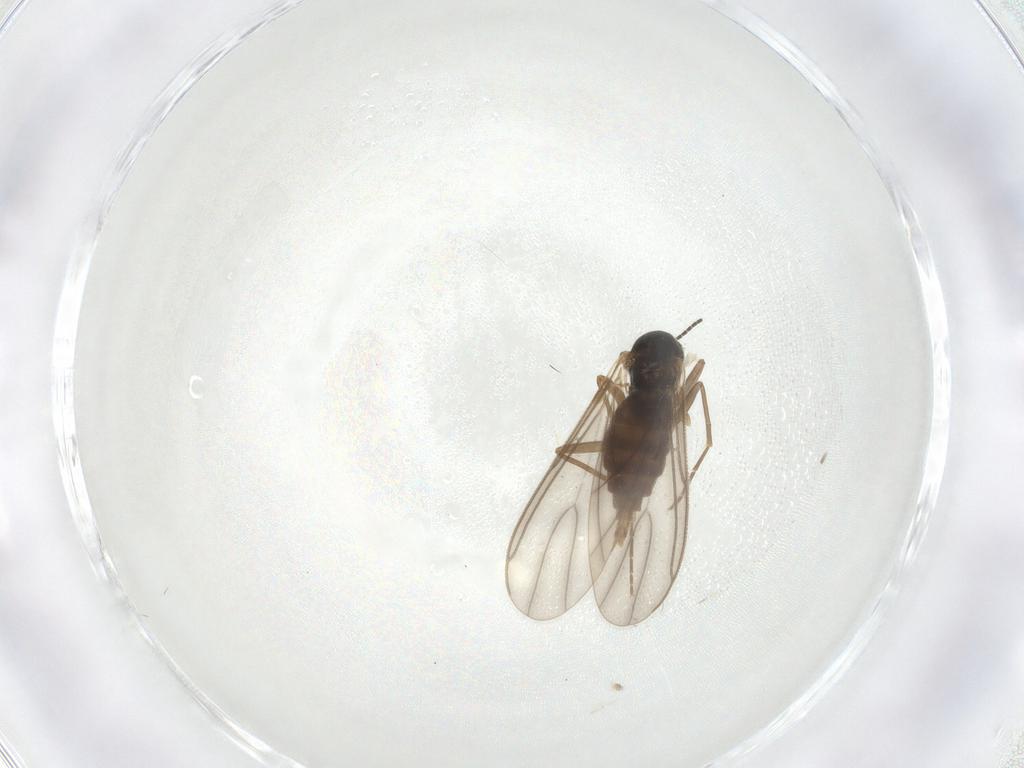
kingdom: Animalia
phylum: Arthropoda
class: Insecta
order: Diptera
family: Sciaridae
